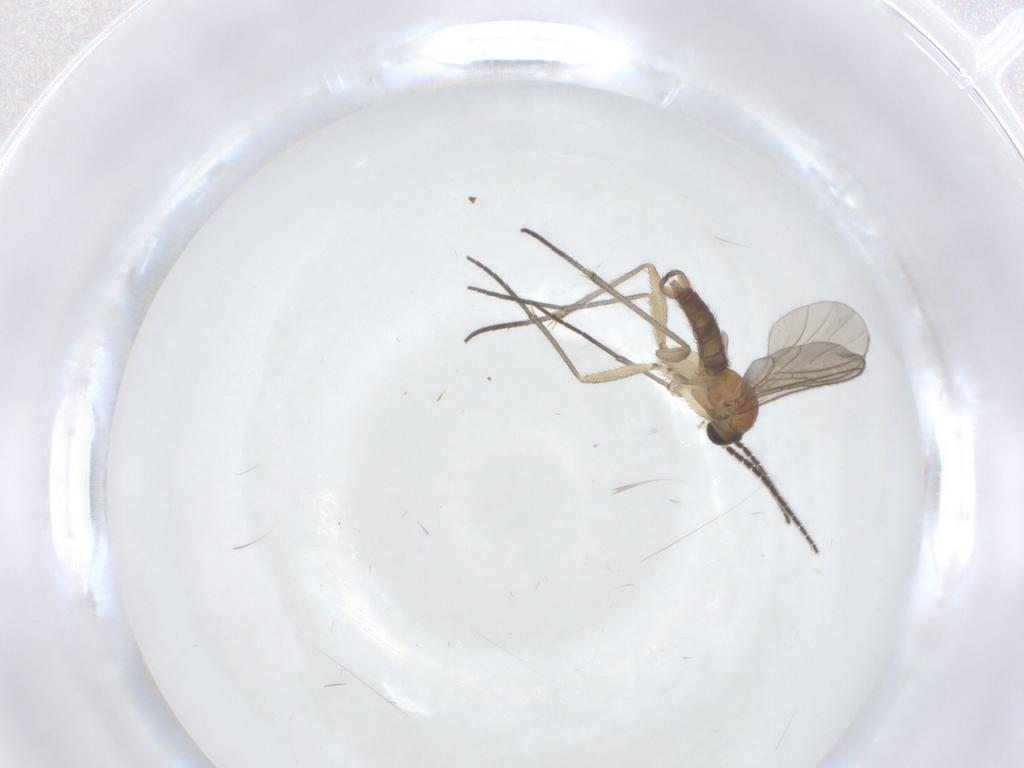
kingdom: Animalia
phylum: Arthropoda
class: Insecta
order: Diptera
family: Sciaridae
